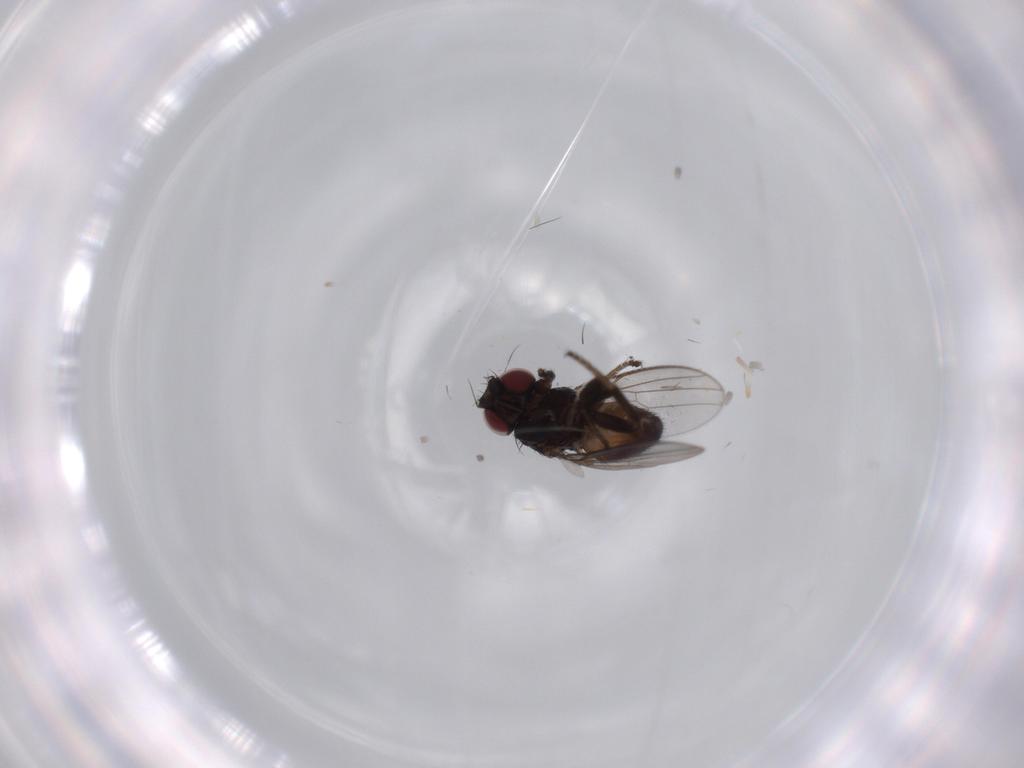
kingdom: Animalia
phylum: Arthropoda
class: Insecta
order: Diptera
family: Milichiidae
